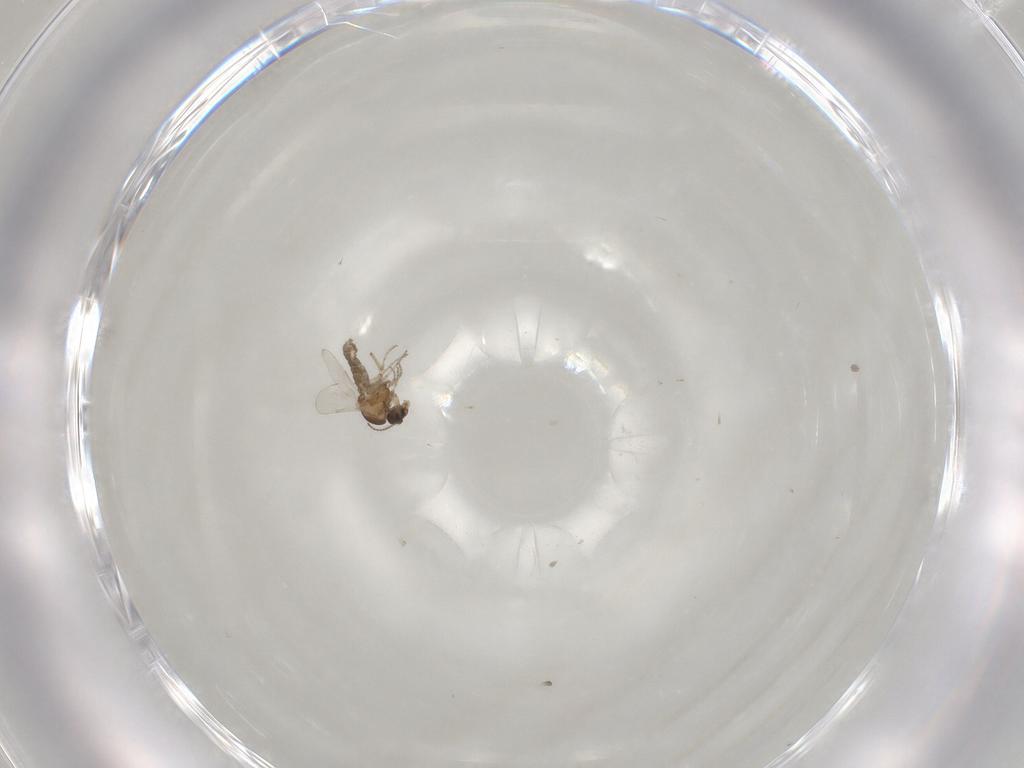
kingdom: Animalia
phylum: Arthropoda
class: Insecta
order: Diptera
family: Ceratopogonidae
